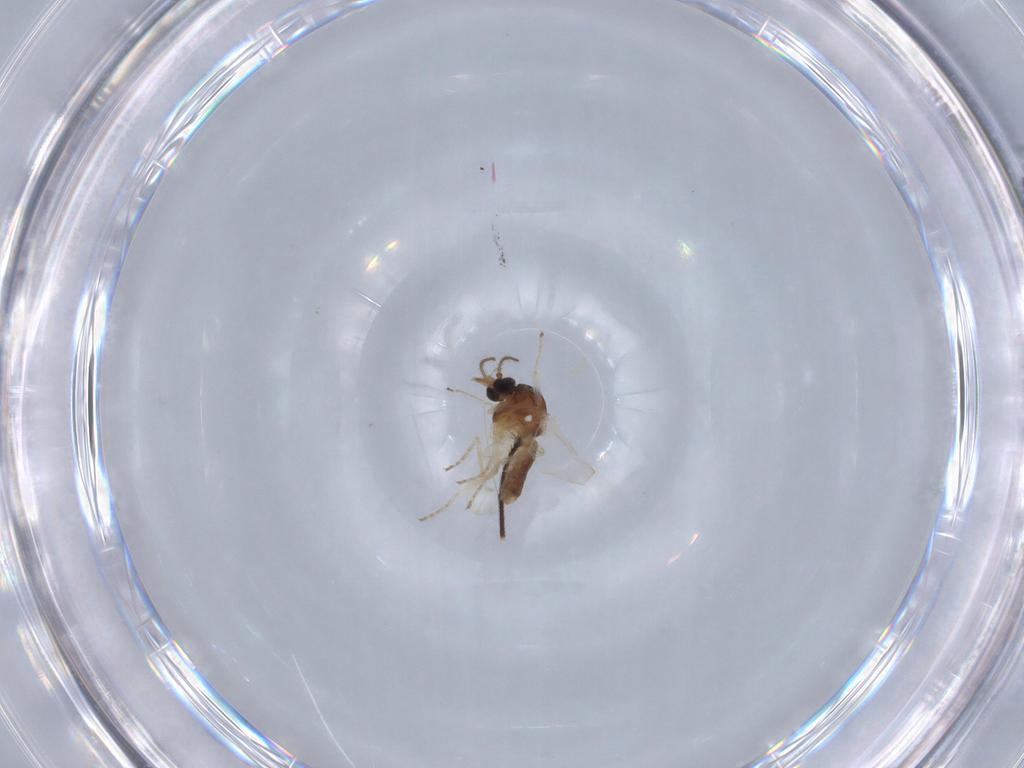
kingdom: Animalia
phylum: Arthropoda
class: Insecta
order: Diptera
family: Ceratopogonidae
